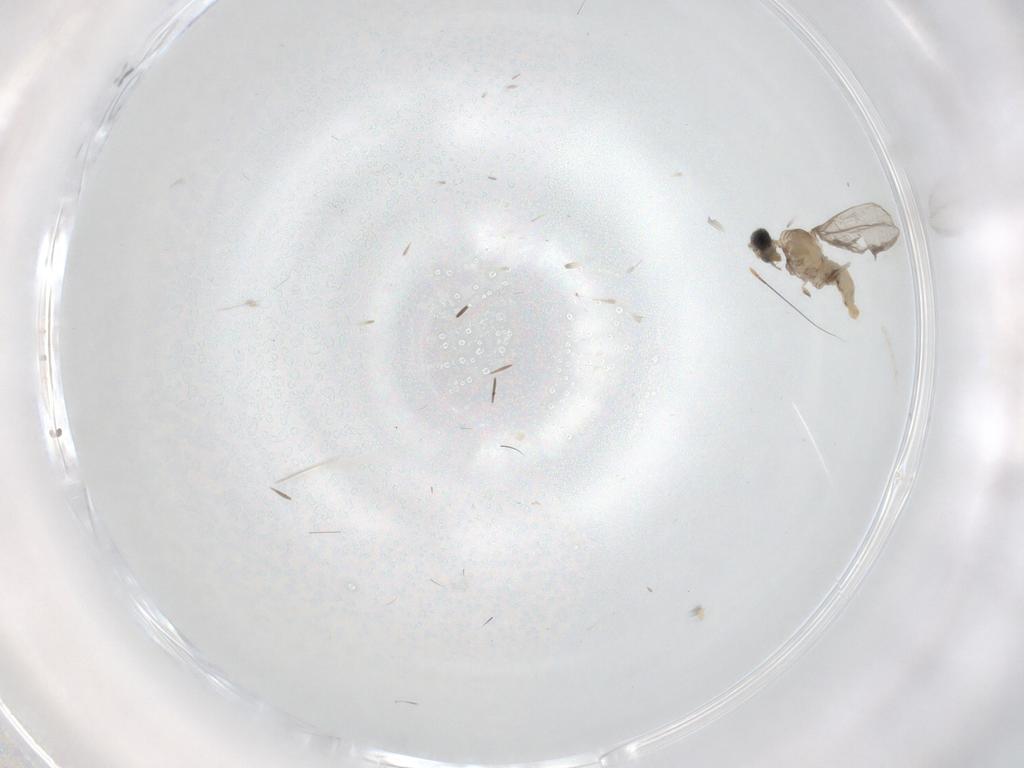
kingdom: Animalia
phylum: Arthropoda
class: Insecta
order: Diptera
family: Cecidomyiidae
